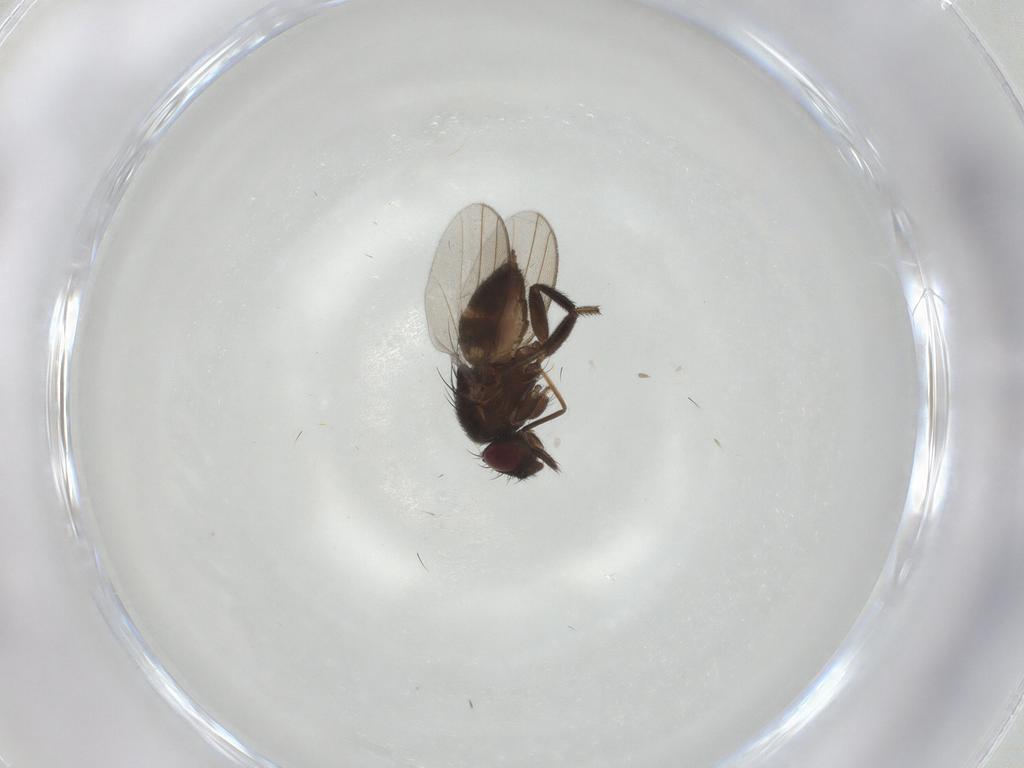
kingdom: Animalia
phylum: Arthropoda
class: Insecta
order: Diptera
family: Milichiidae
